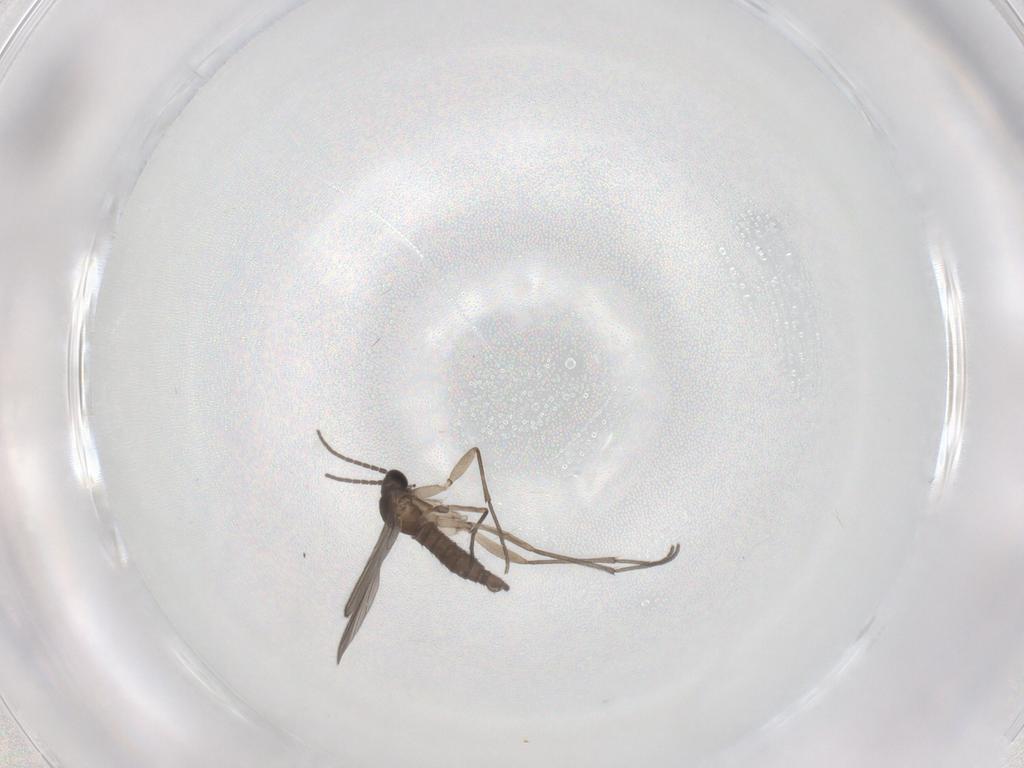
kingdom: Animalia
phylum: Arthropoda
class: Insecta
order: Diptera
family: Sciaridae
